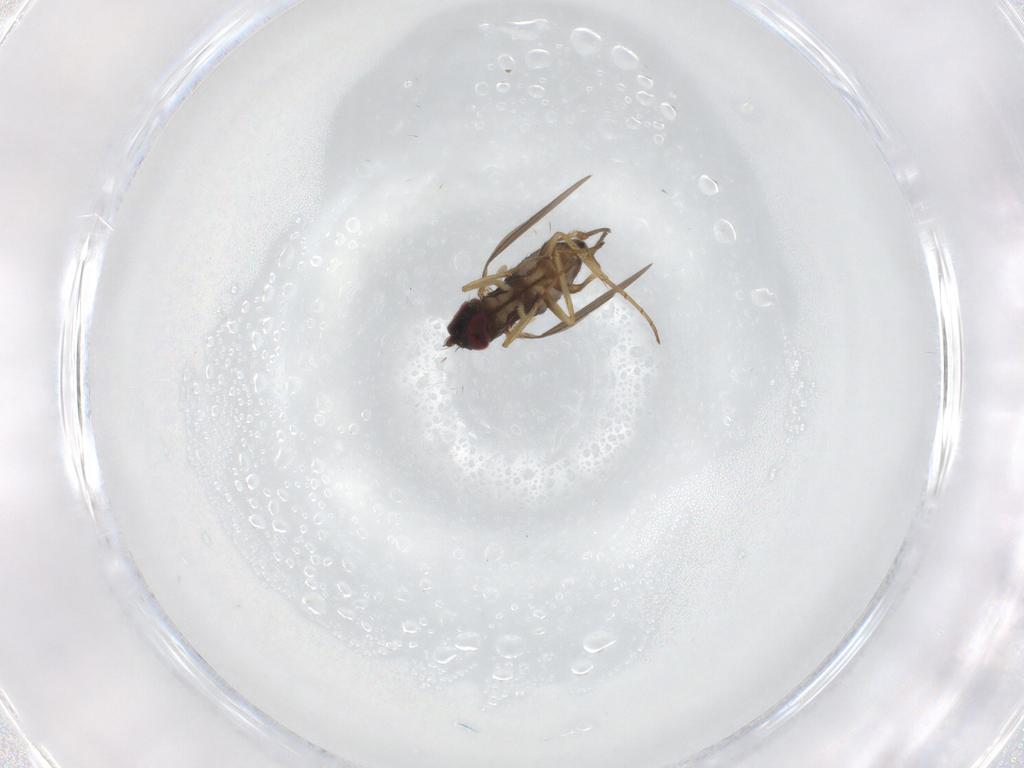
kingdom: Animalia
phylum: Arthropoda
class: Insecta
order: Diptera
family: Dolichopodidae
